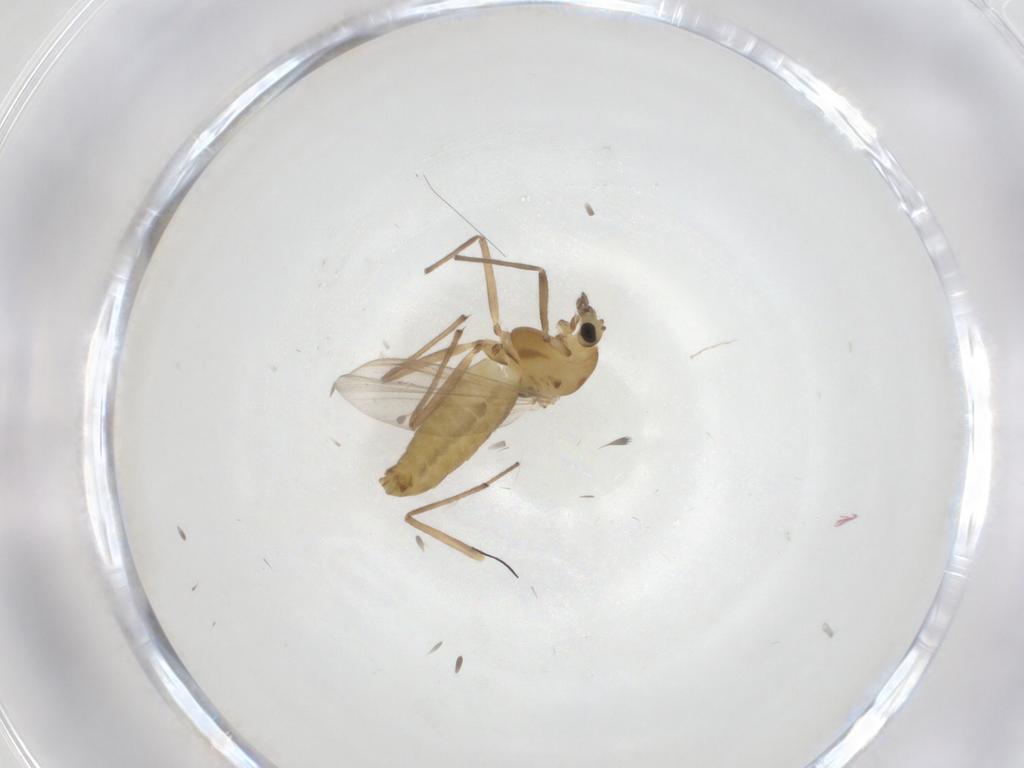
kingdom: Animalia
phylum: Arthropoda
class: Insecta
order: Diptera
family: Chironomidae
